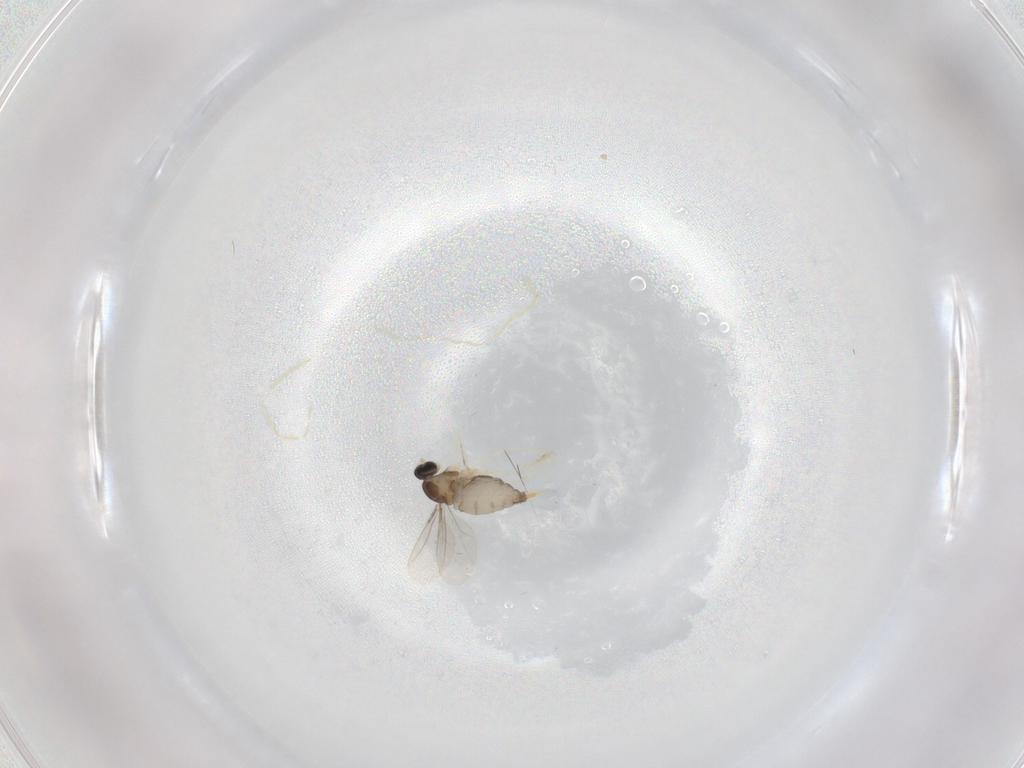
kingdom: Animalia
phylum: Arthropoda
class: Insecta
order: Diptera
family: Cecidomyiidae
